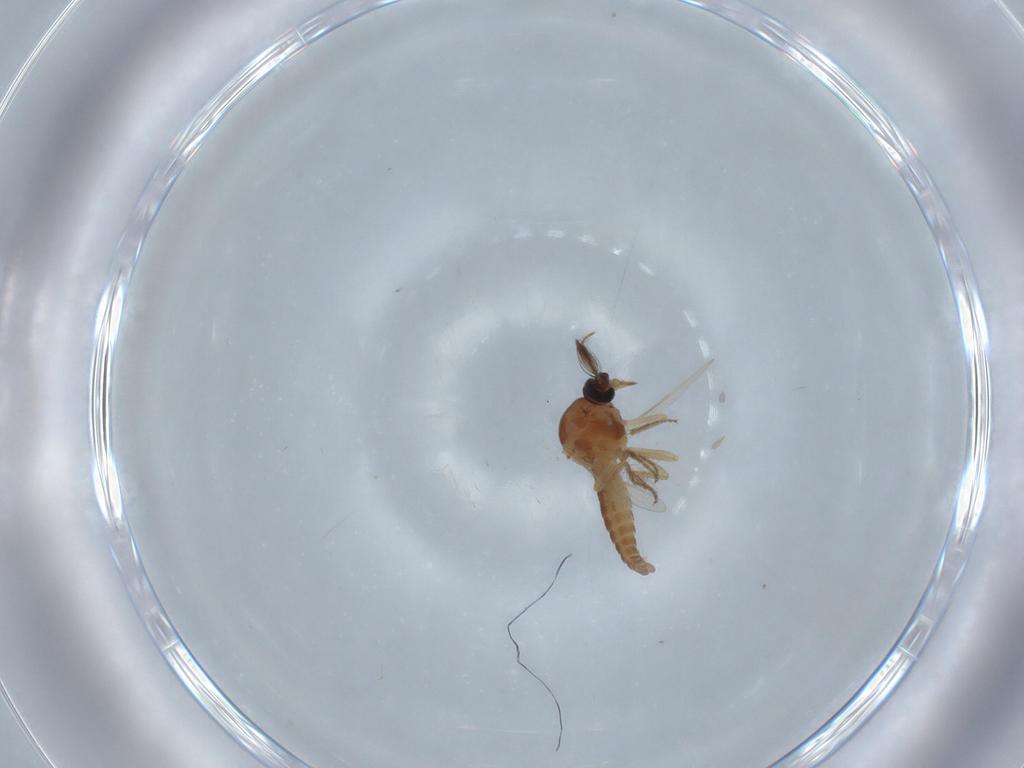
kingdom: Animalia
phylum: Arthropoda
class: Insecta
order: Diptera
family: Ceratopogonidae
